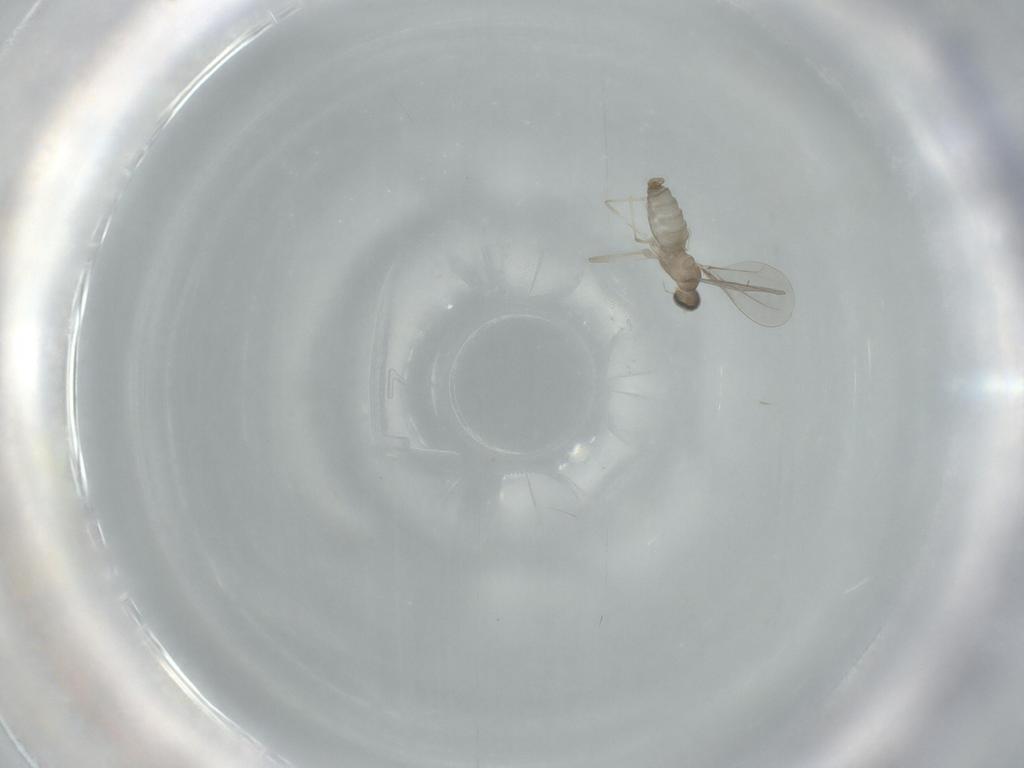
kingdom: Animalia
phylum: Arthropoda
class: Insecta
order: Diptera
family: Cecidomyiidae
